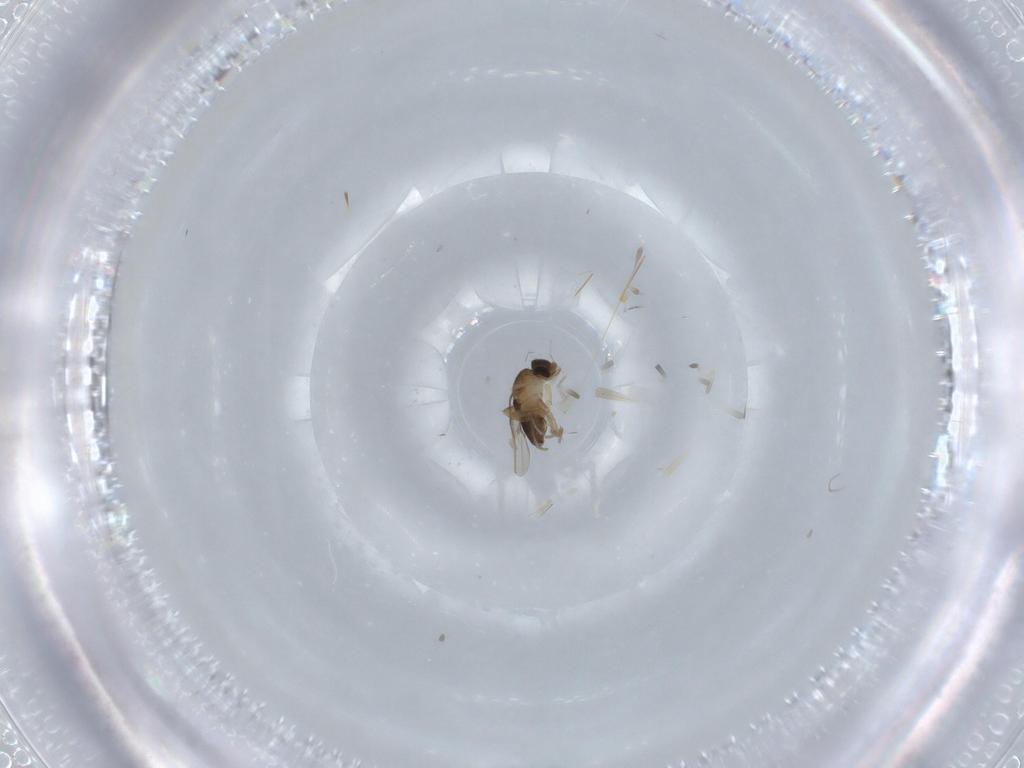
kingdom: Animalia
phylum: Arthropoda
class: Insecta
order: Diptera
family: Phoridae
